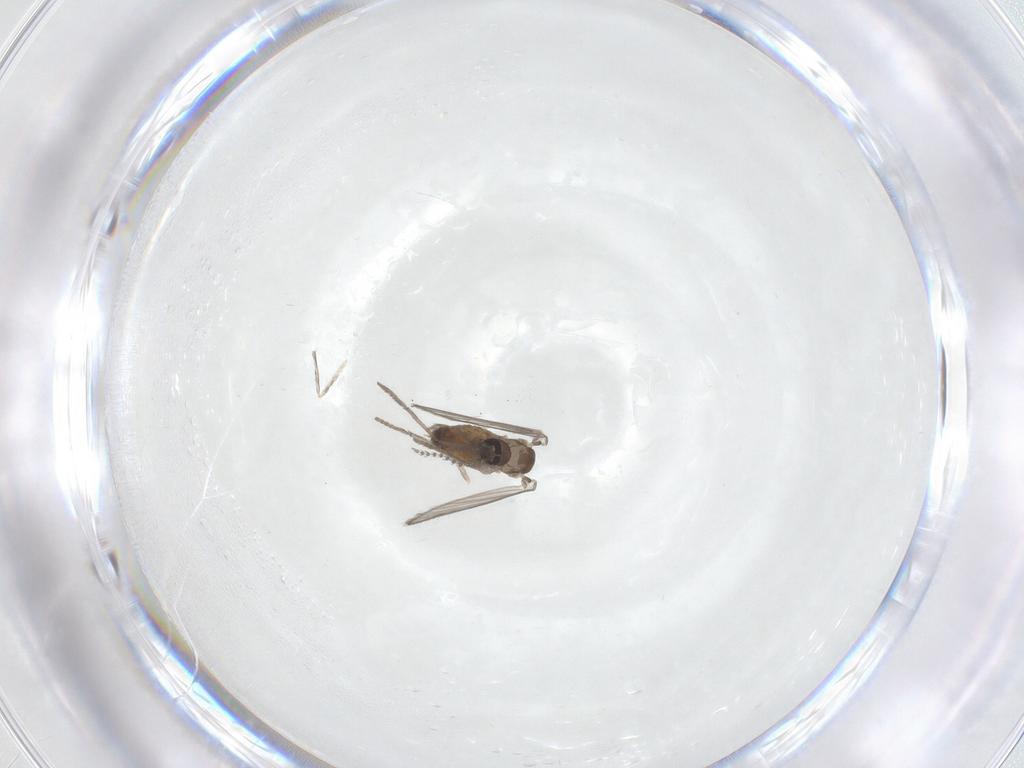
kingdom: Animalia
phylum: Arthropoda
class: Insecta
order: Diptera
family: Psychodidae
